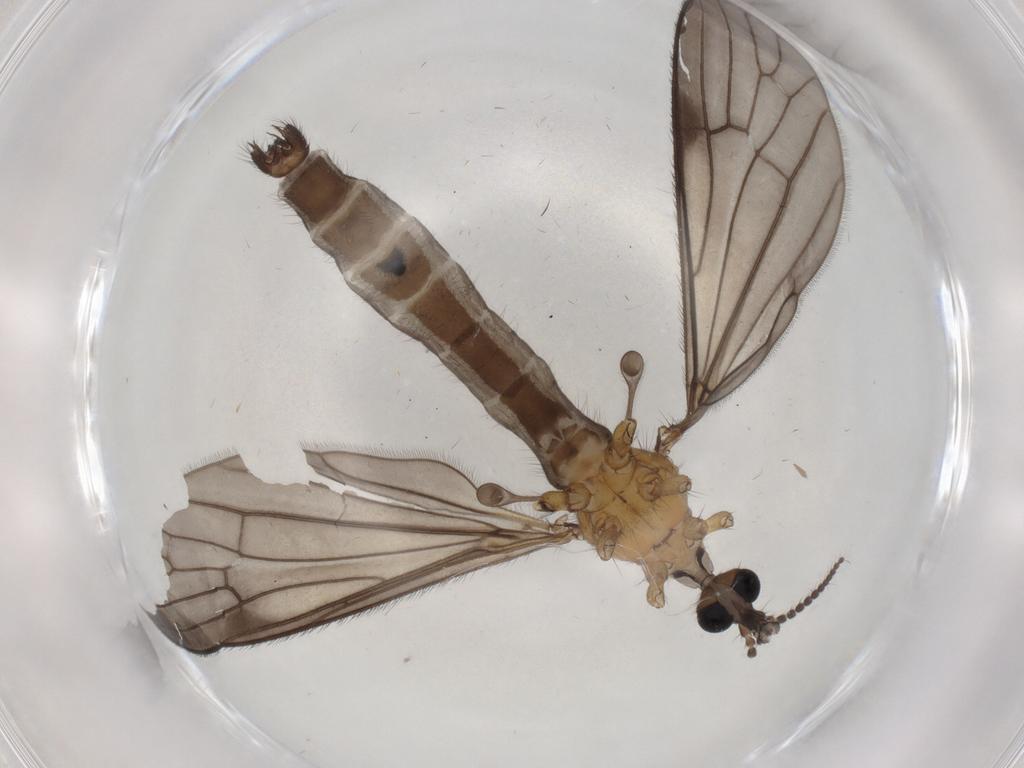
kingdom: Animalia
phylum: Arthropoda
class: Insecta
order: Diptera
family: Limoniidae
